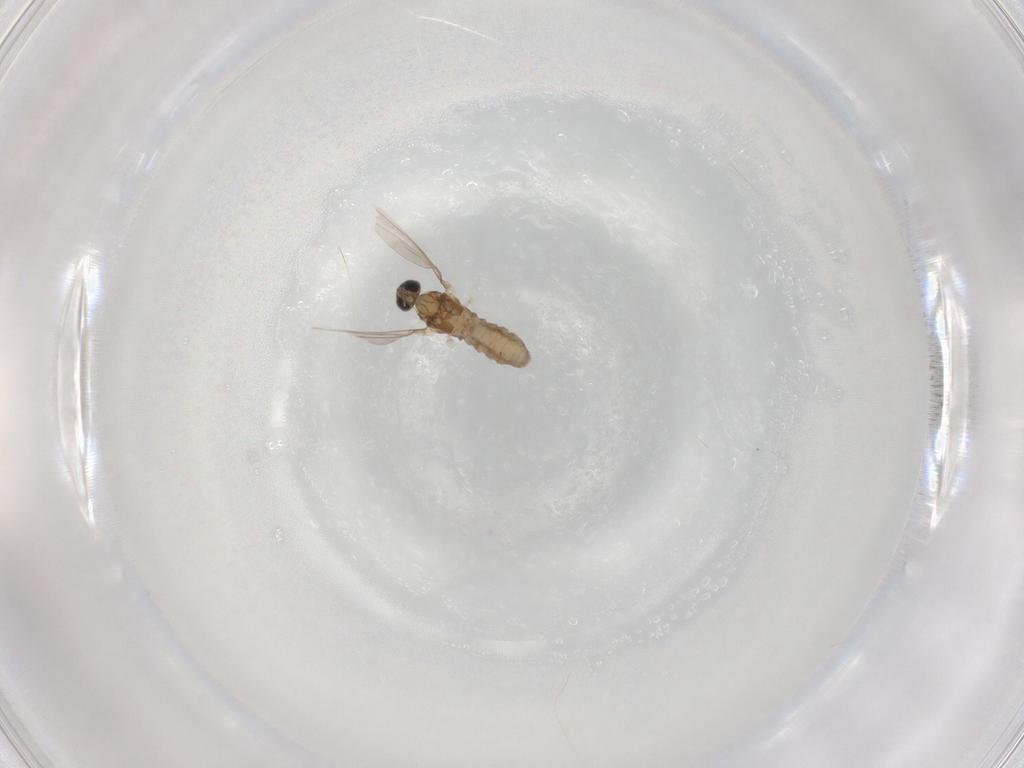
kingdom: Animalia
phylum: Arthropoda
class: Insecta
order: Diptera
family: Cecidomyiidae
